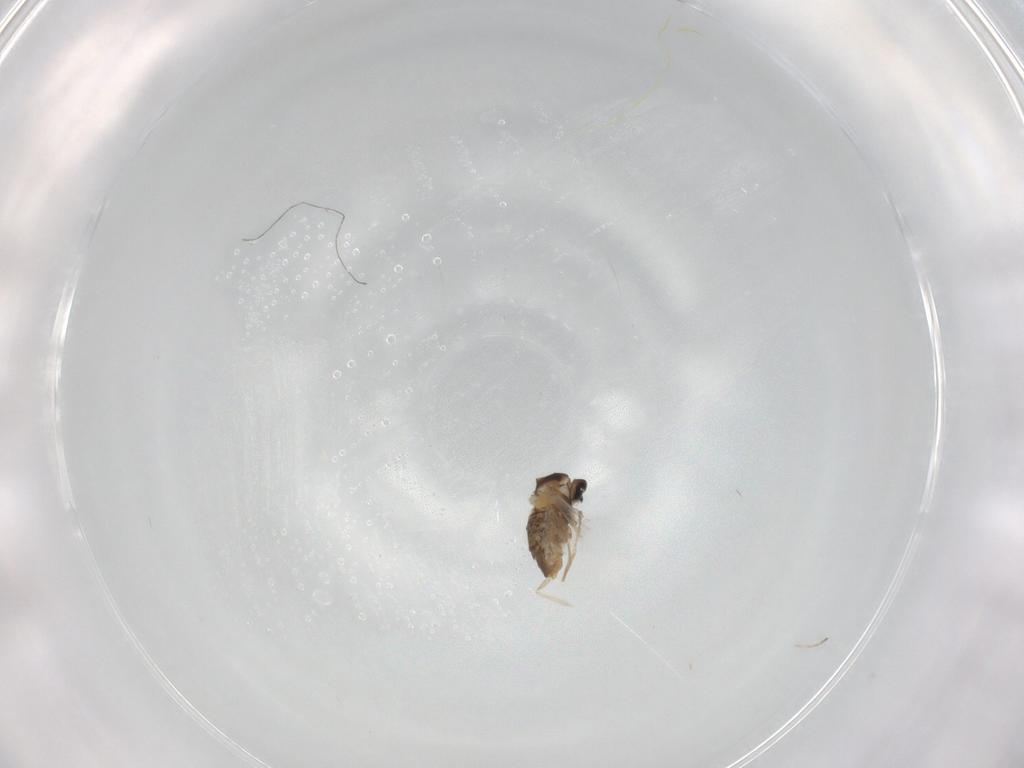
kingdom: Animalia
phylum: Arthropoda
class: Insecta
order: Diptera
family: Cecidomyiidae
